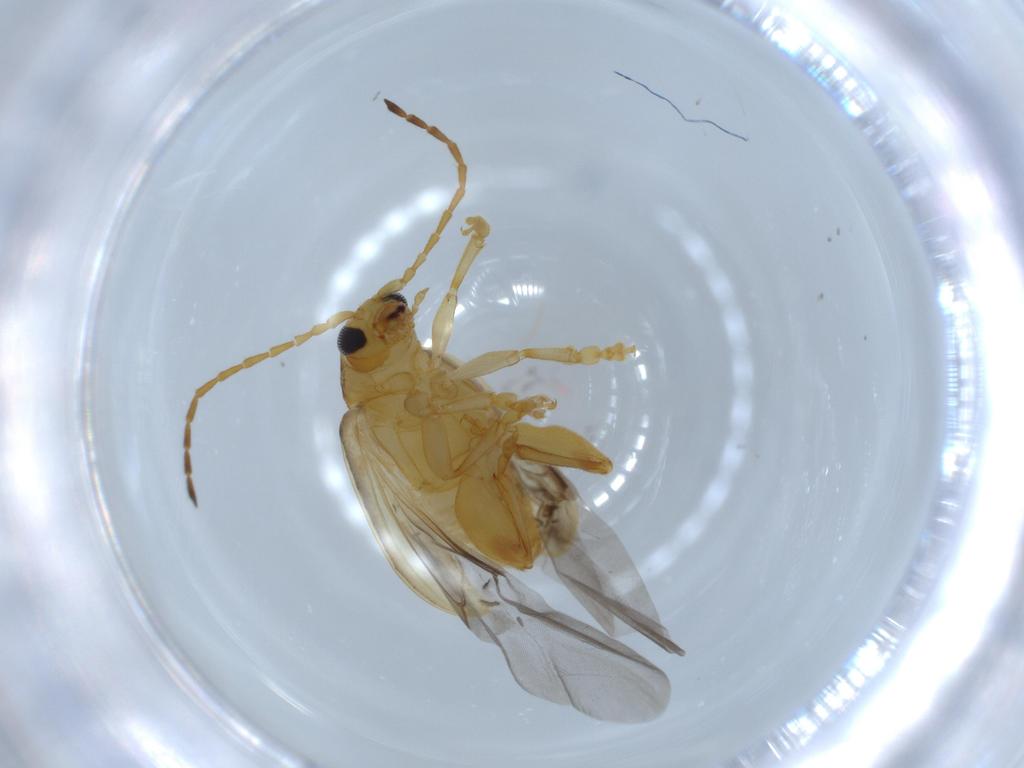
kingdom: Animalia
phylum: Arthropoda
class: Insecta
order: Coleoptera
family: Chrysomelidae
